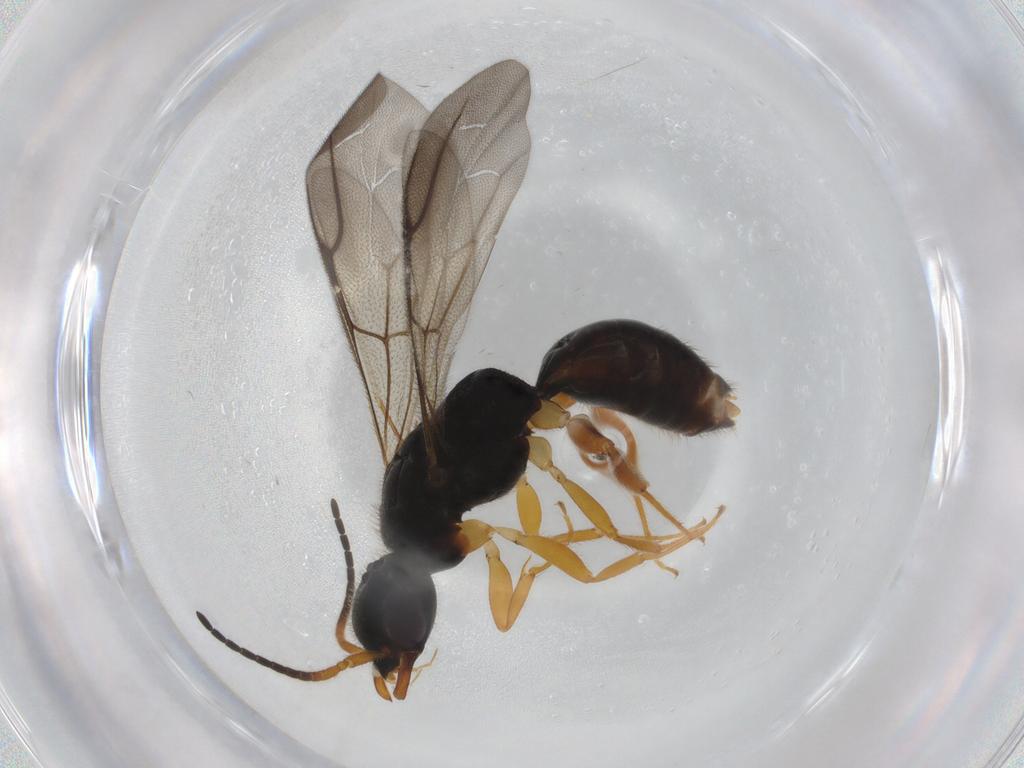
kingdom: Animalia
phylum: Arthropoda
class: Insecta
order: Hymenoptera
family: Bethylidae
